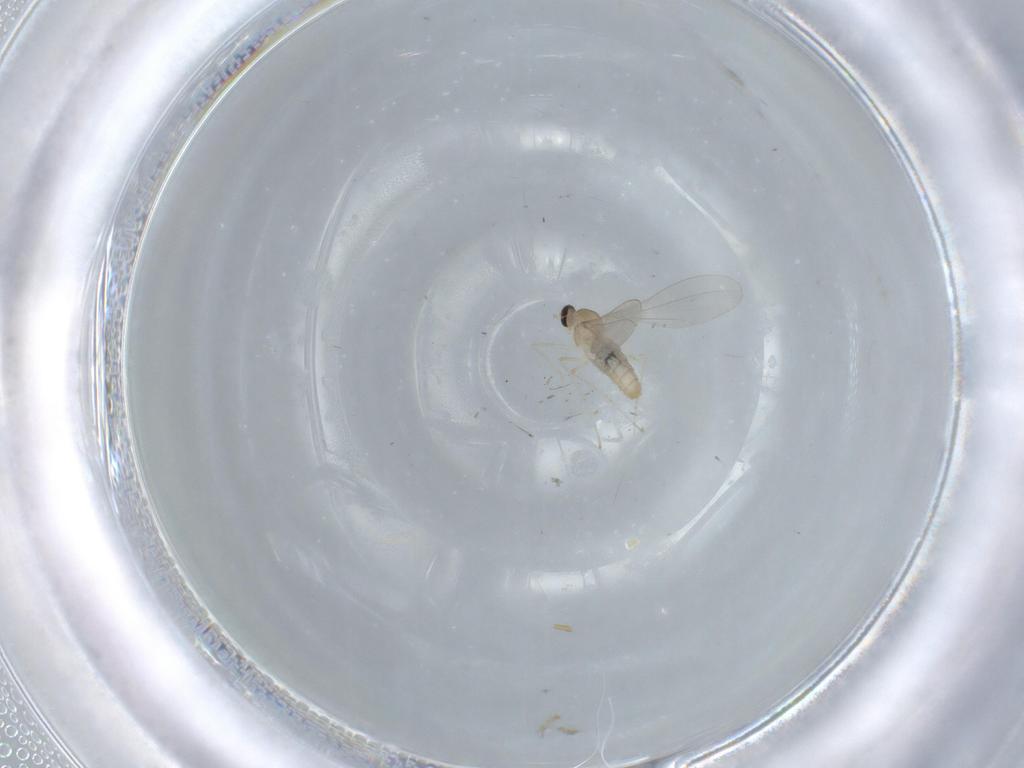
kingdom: Animalia
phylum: Arthropoda
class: Insecta
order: Diptera
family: Cecidomyiidae
